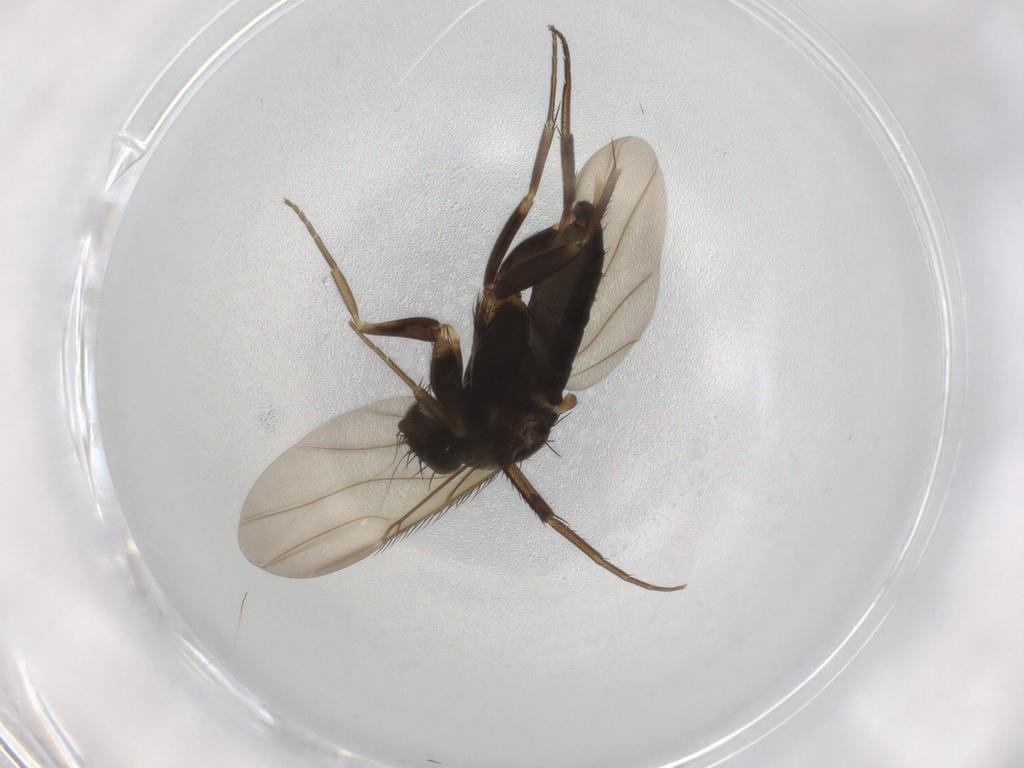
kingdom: Animalia
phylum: Arthropoda
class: Insecta
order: Diptera
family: Phoridae
